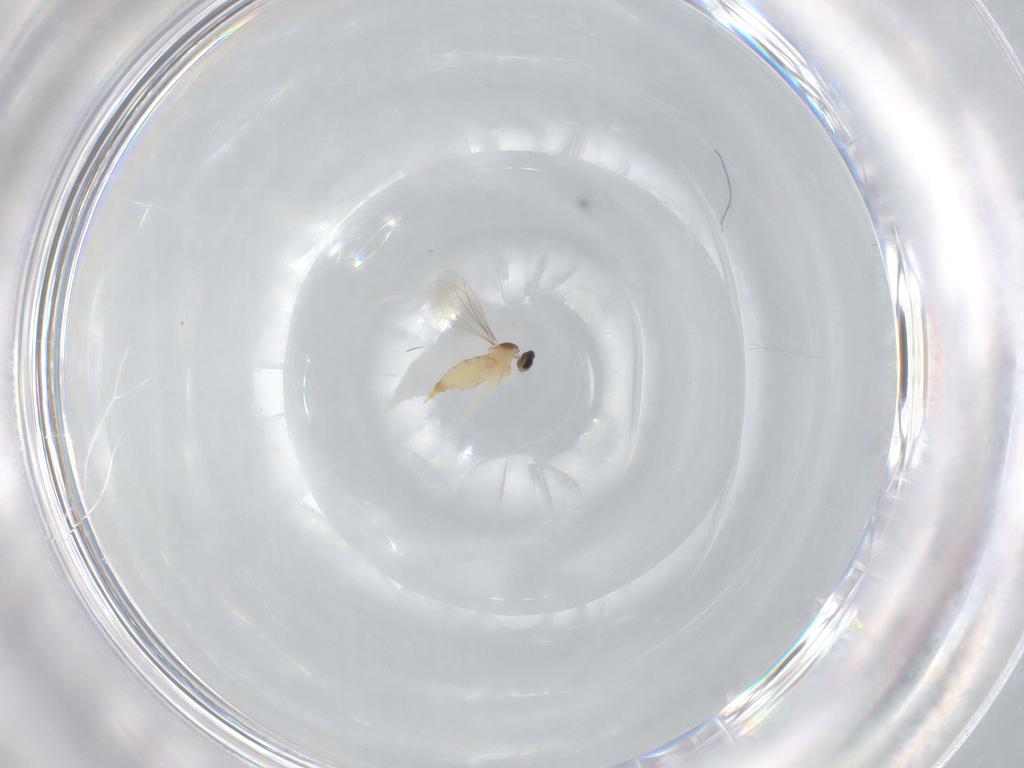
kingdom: Animalia
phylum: Arthropoda
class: Insecta
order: Diptera
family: Cecidomyiidae
